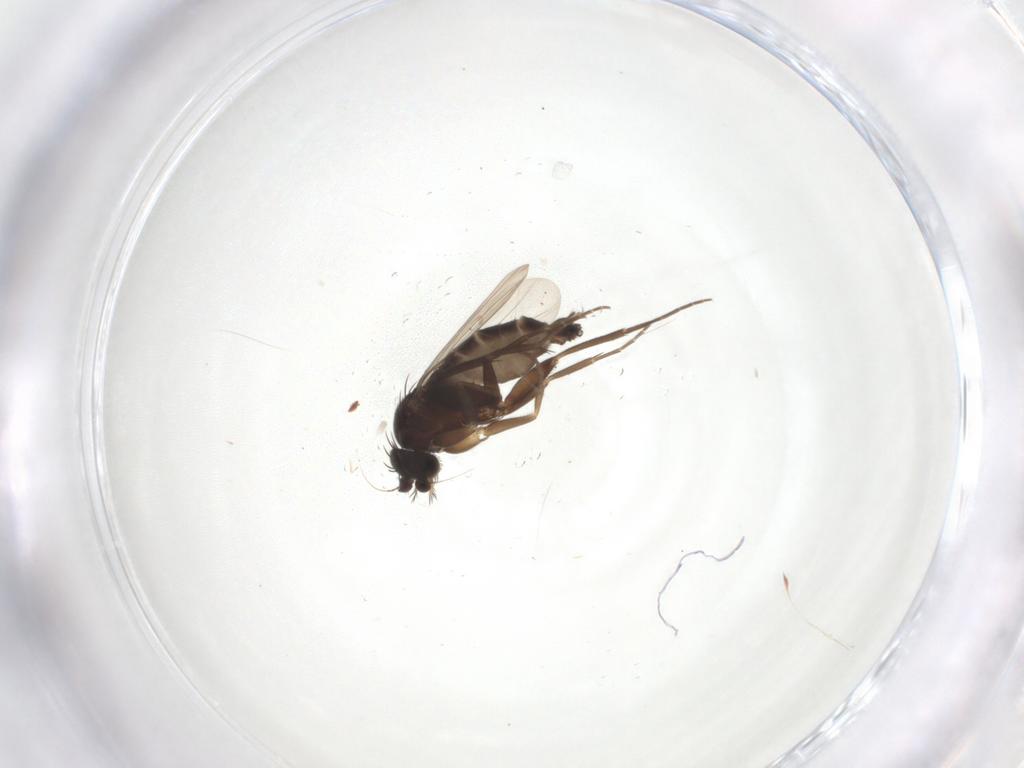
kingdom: Animalia
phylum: Arthropoda
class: Insecta
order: Diptera
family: Phoridae
